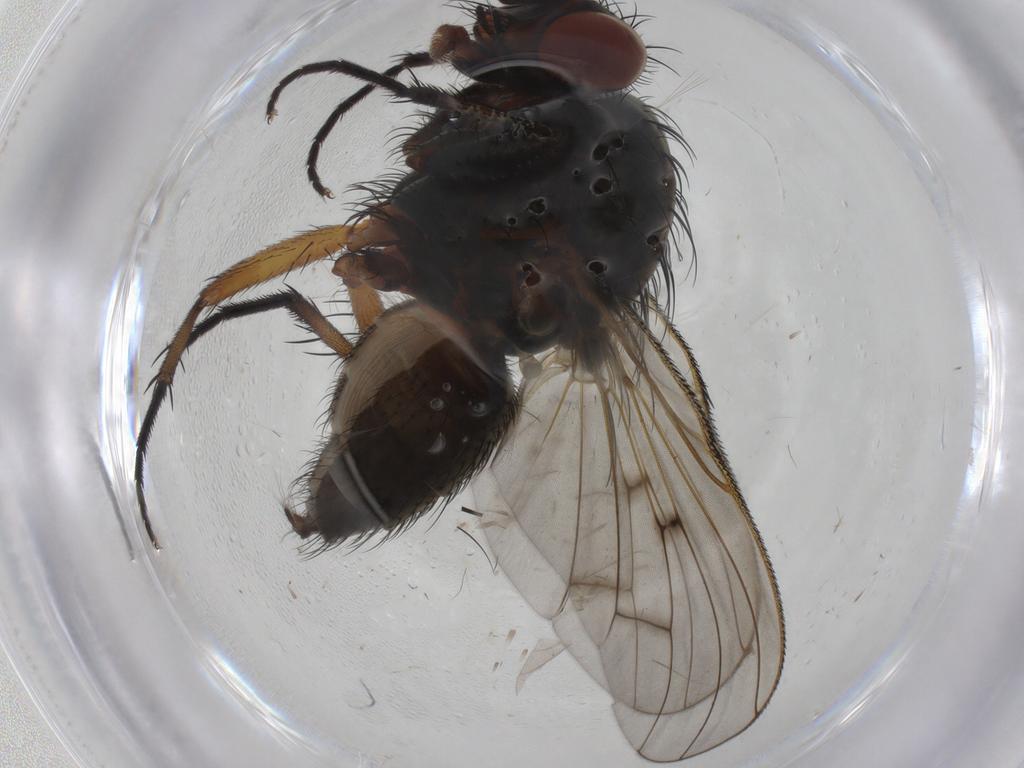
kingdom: Animalia
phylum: Arthropoda
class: Insecta
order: Diptera
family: Sciaridae
